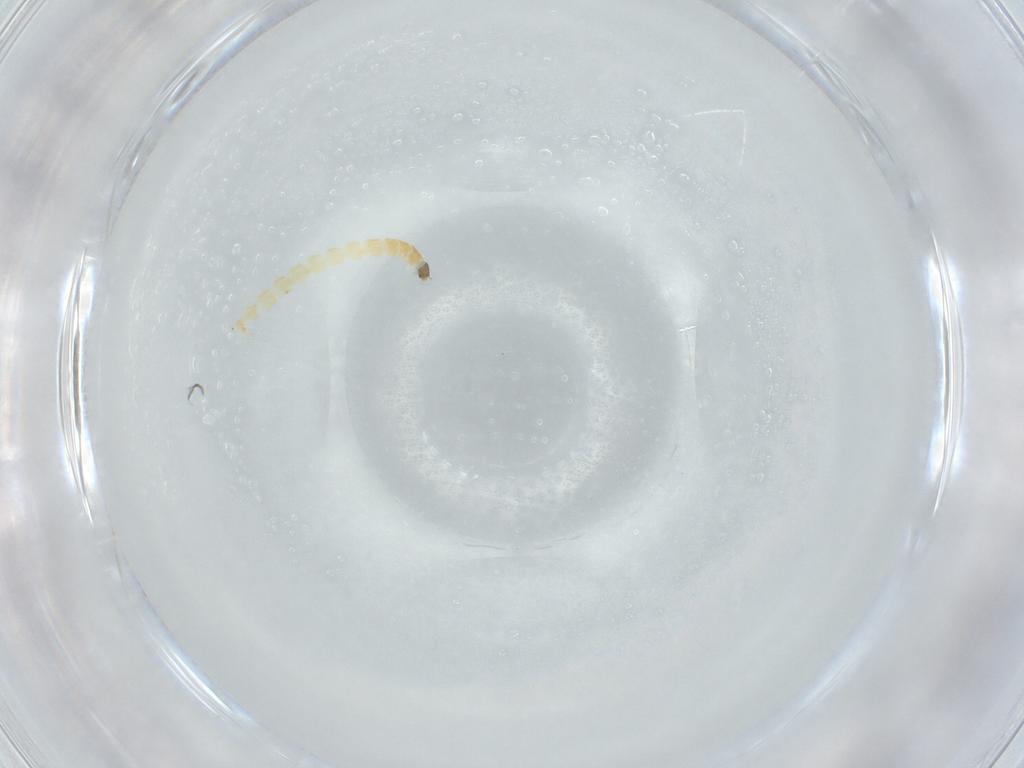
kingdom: Animalia
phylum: Arthropoda
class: Insecta
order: Diptera
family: Chironomidae
